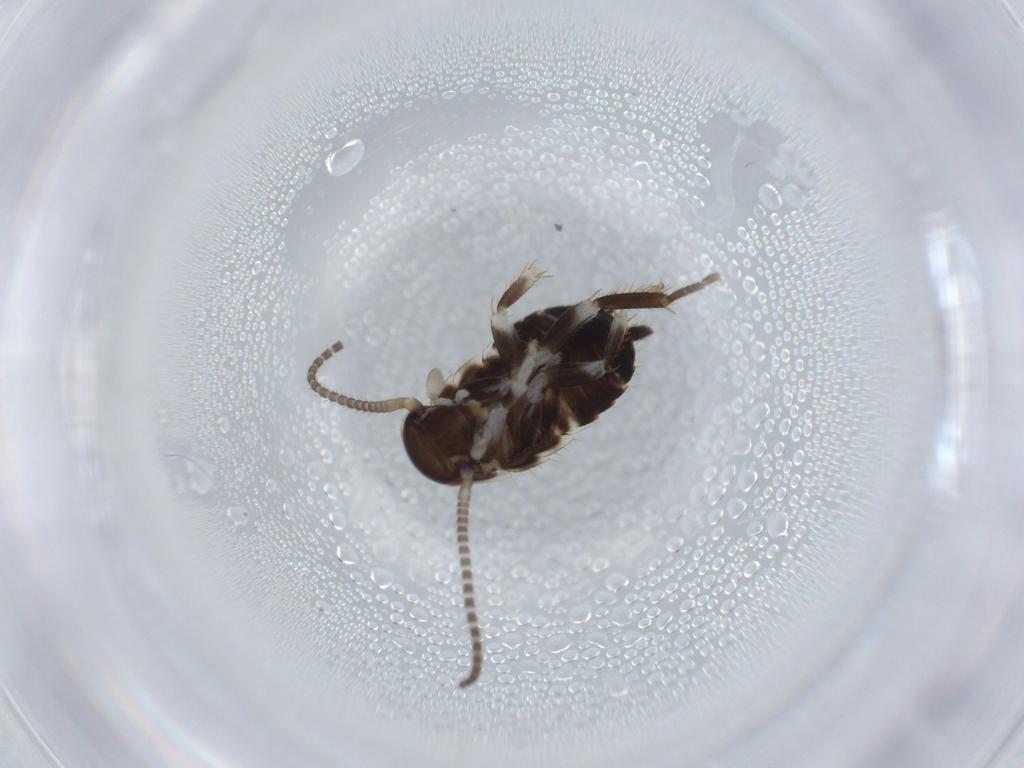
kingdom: Animalia
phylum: Arthropoda
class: Insecta
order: Blattodea
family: Ectobiidae
